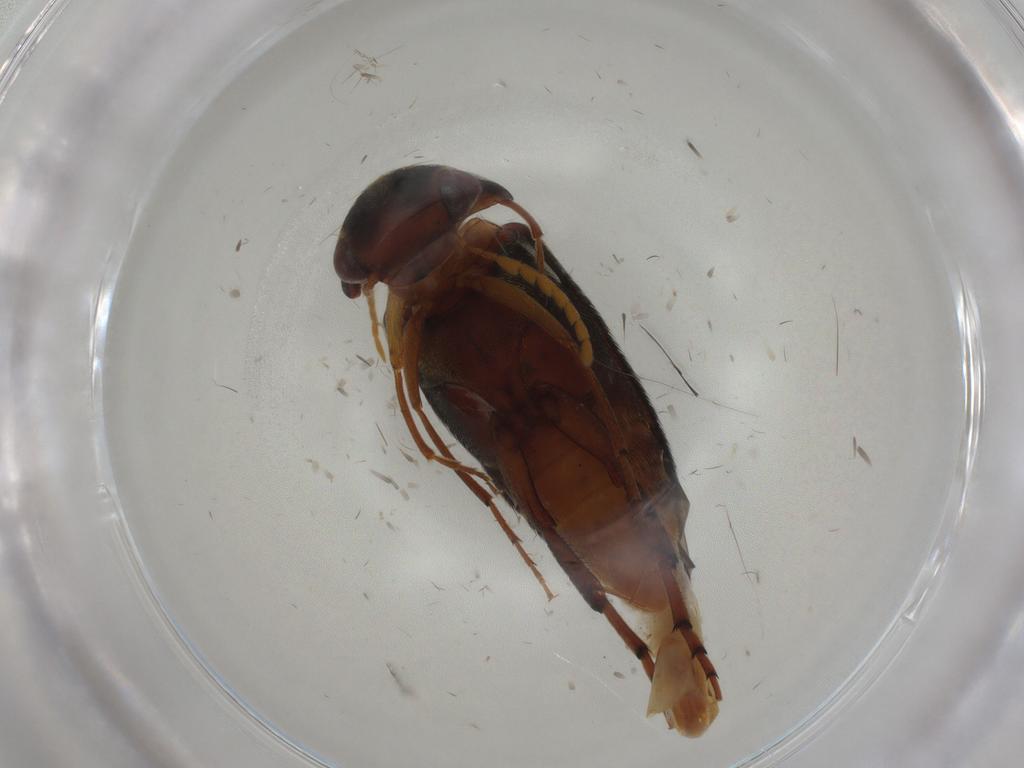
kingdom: Animalia
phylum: Arthropoda
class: Insecta
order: Coleoptera
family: Mordellidae
